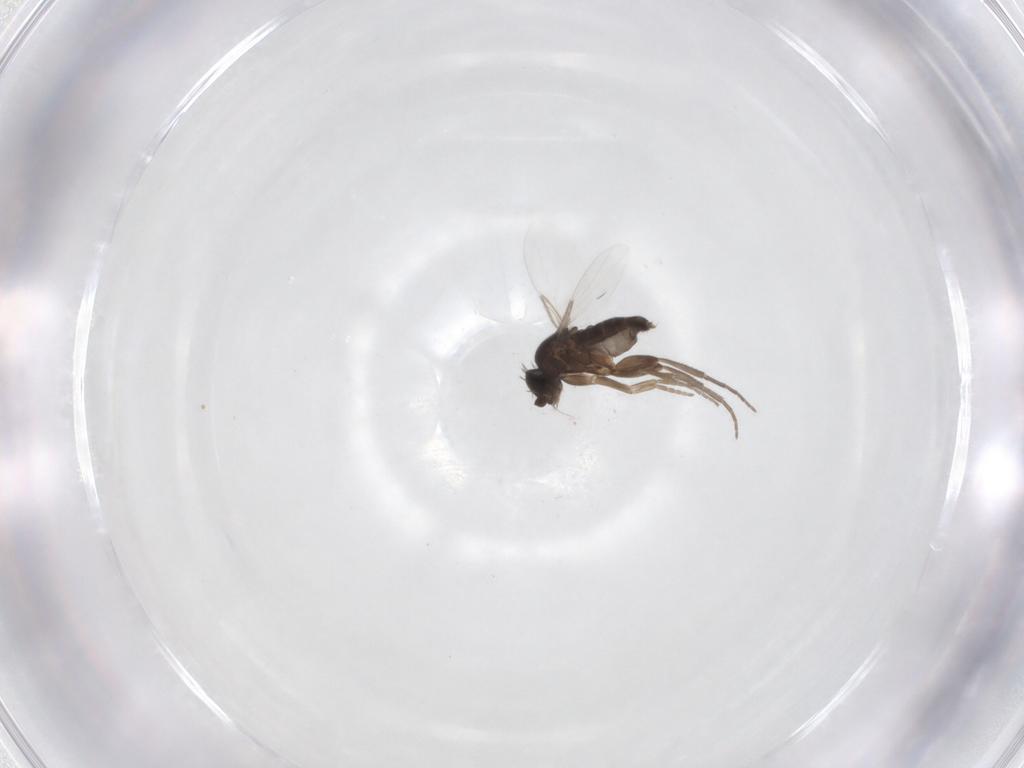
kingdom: Animalia
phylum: Arthropoda
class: Insecta
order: Diptera
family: Phoridae
